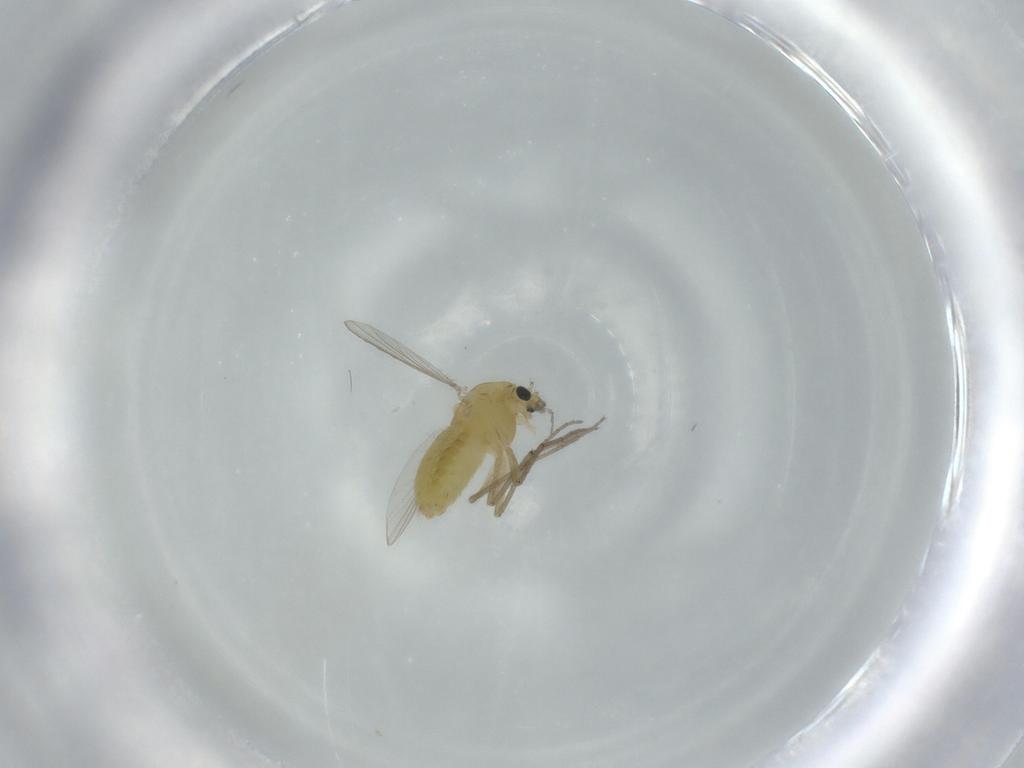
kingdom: Animalia
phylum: Arthropoda
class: Insecta
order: Diptera
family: Chironomidae
